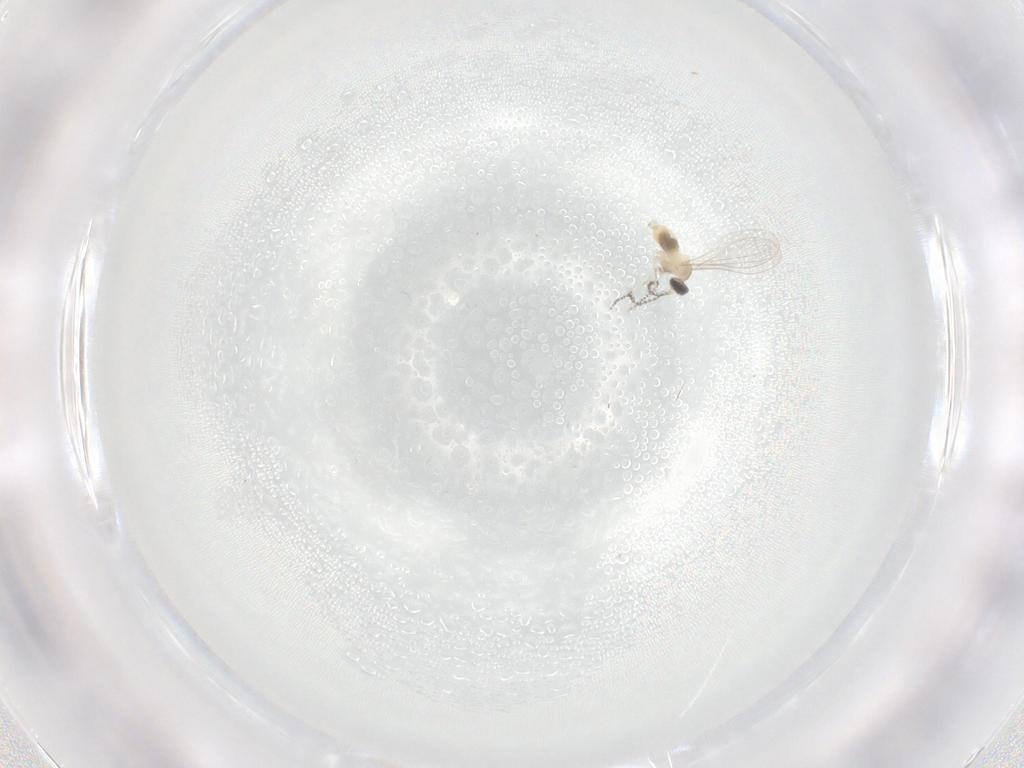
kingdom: Animalia
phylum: Arthropoda
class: Insecta
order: Diptera
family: Cecidomyiidae
